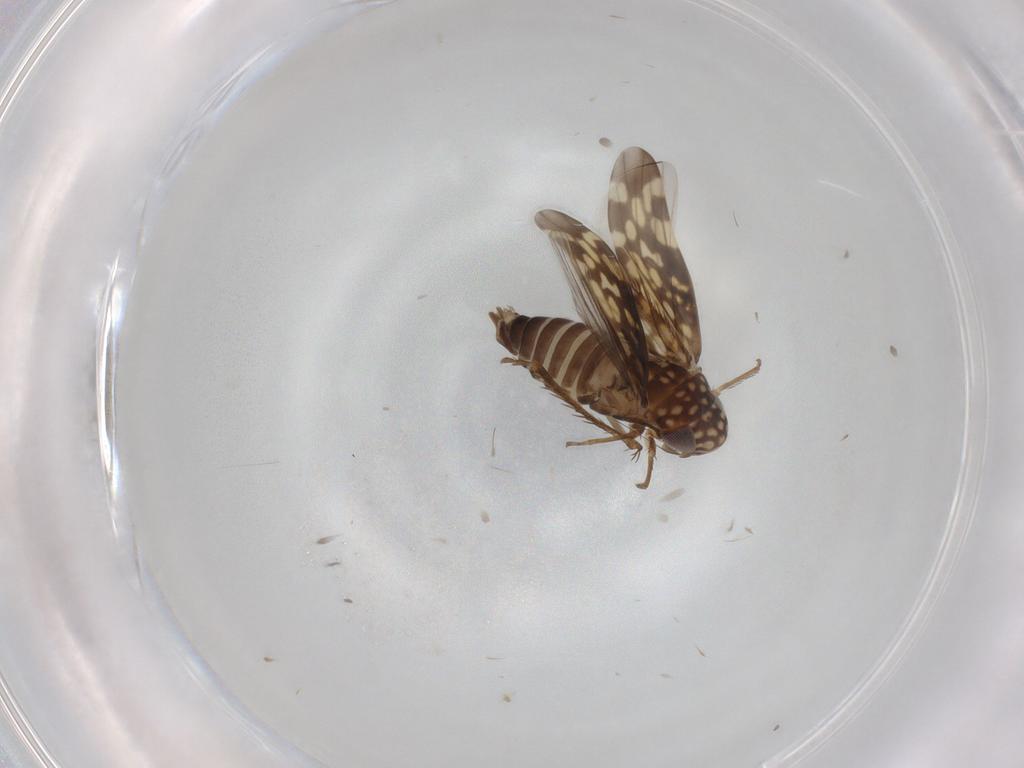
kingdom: Animalia
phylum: Arthropoda
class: Insecta
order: Hemiptera
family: Cicadellidae
